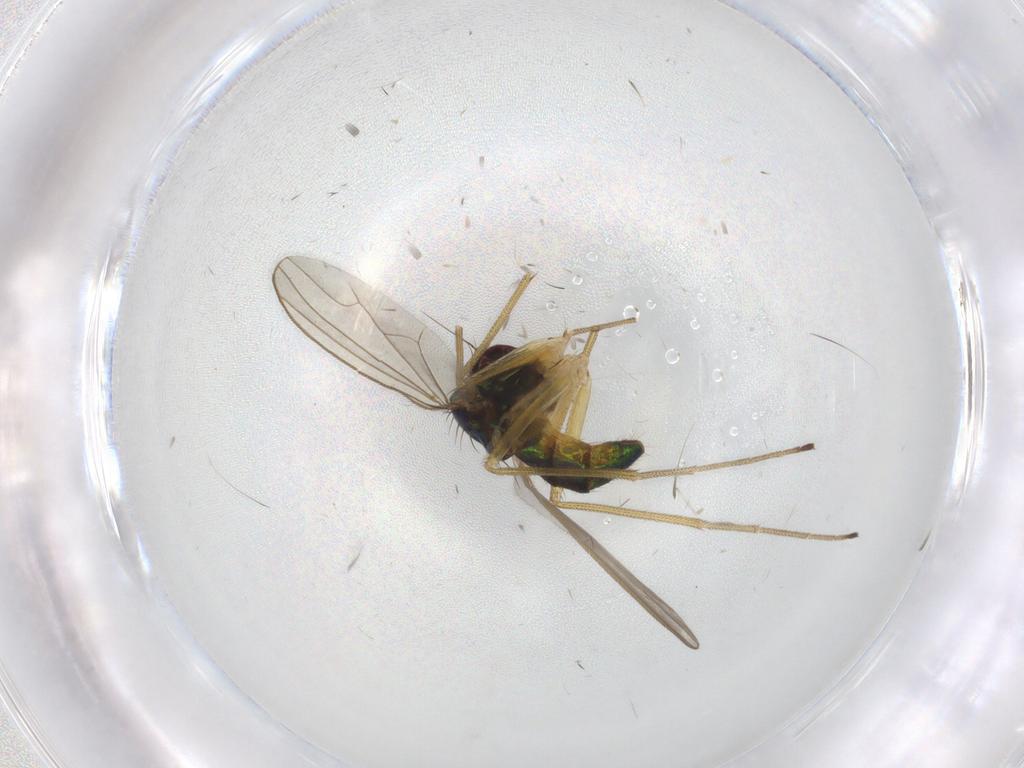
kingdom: Animalia
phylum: Arthropoda
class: Insecta
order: Diptera
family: Dolichopodidae
